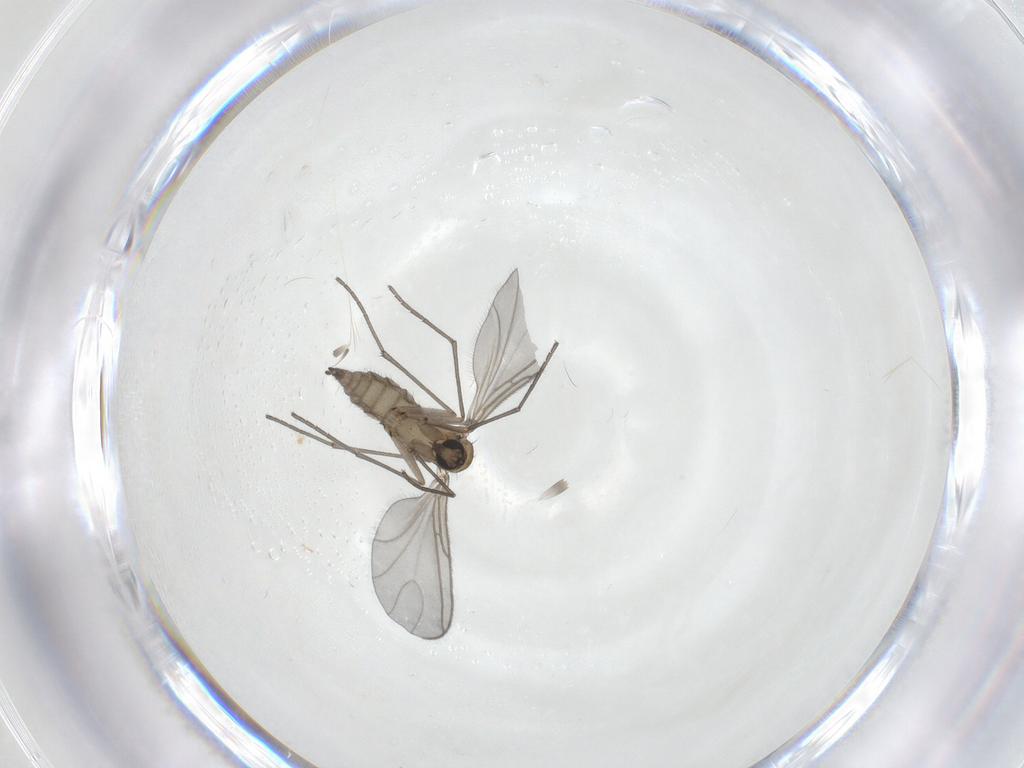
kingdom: Animalia
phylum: Arthropoda
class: Insecta
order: Diptera
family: Sciaridae
